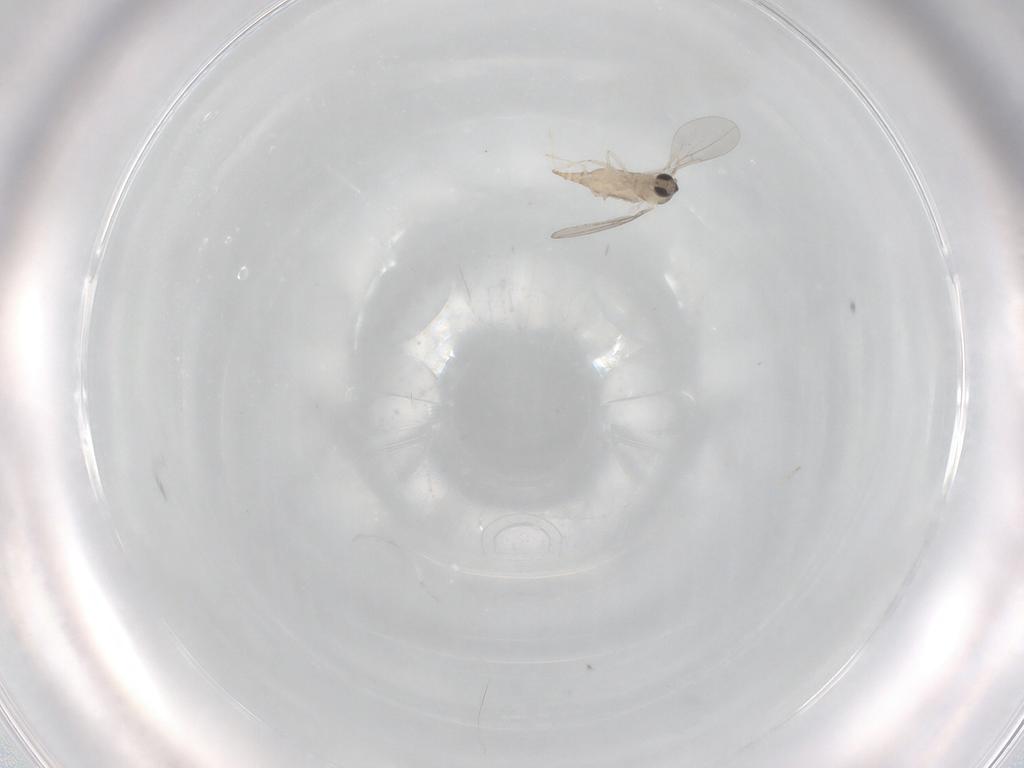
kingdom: Animalia
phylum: Arthropoda
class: Insecta
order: Diptera
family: Cecidomyiidae
